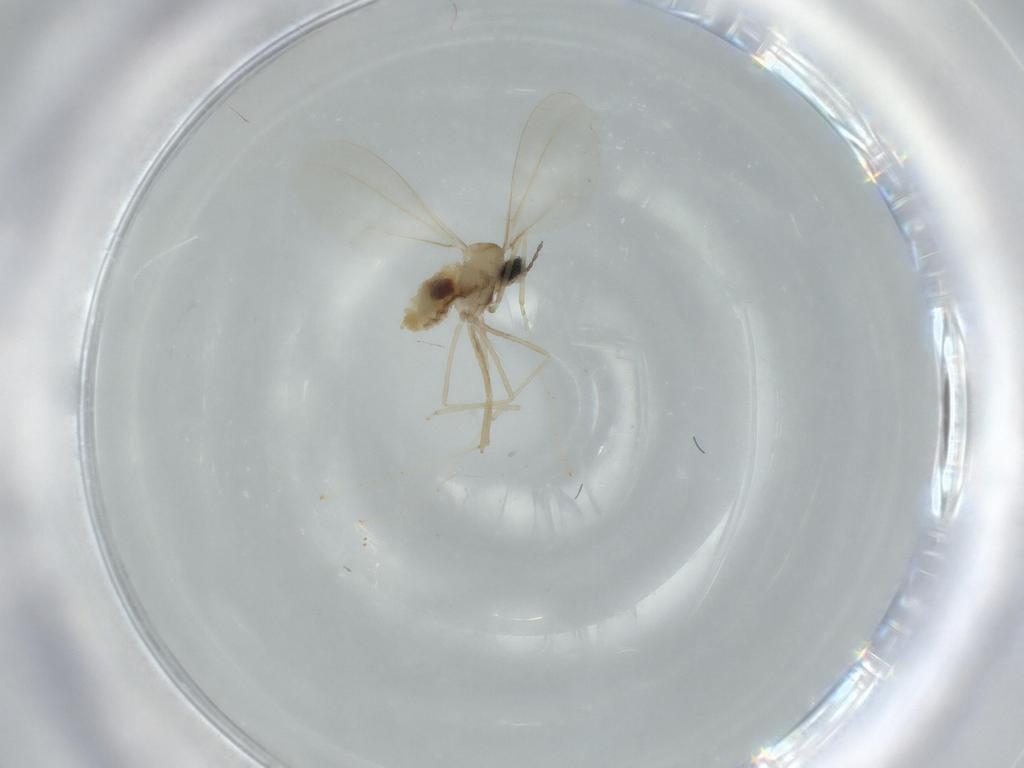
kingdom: Animalia
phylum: Arthropoda
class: Insecta
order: Diptera
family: Cecidomyiidae
